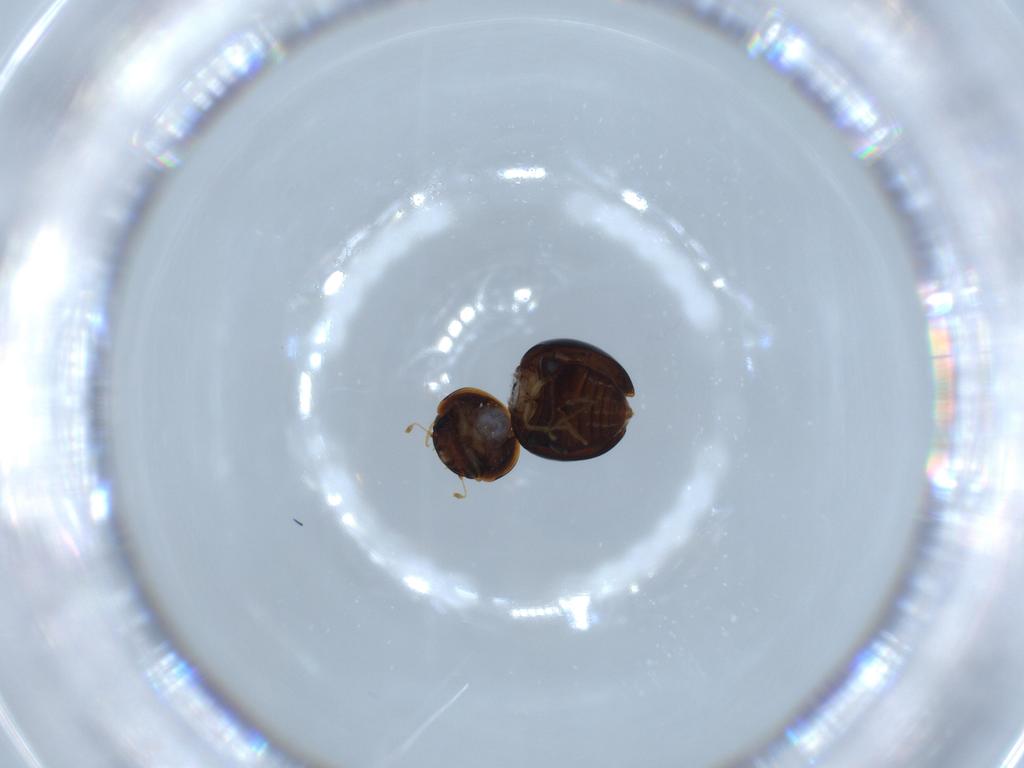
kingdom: Animalia
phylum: Arthropoda
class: Insecta
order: Coleoptera
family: Clambidae
